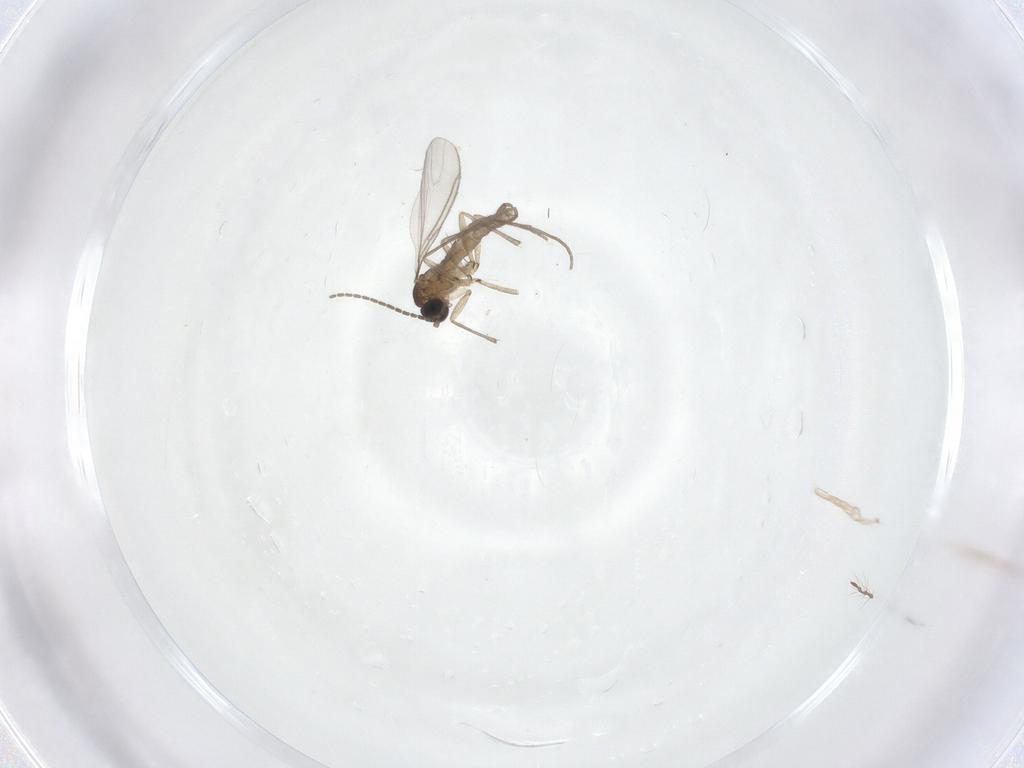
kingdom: Animalia
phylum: Arthropoda
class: Insecta
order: Diptera
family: Sciaridae
